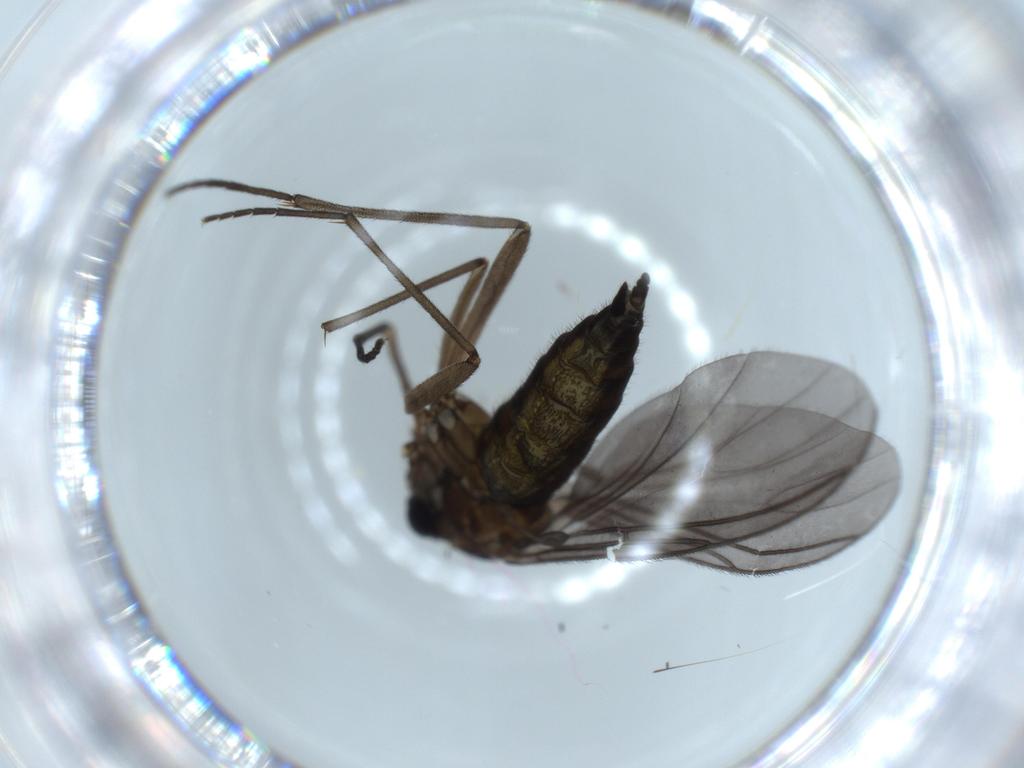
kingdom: Animalia
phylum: Arthropoda
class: Insecta
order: Diptera
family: Sciaridae
